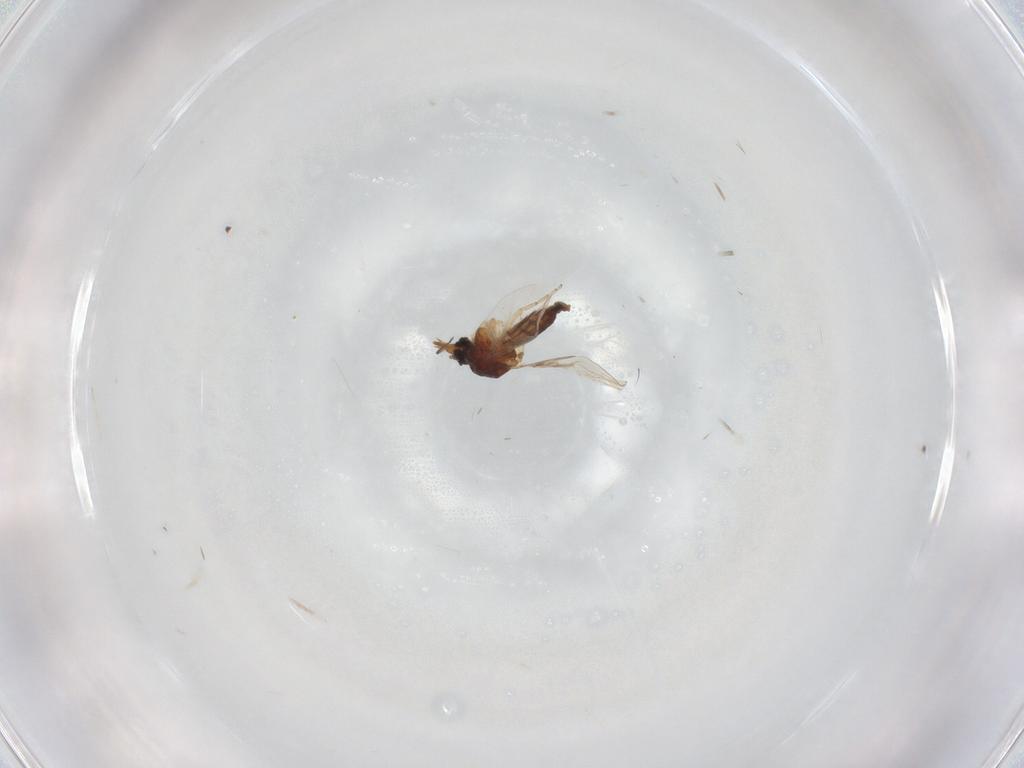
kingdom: Animalia
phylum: Arthropoda
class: Insecta
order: Diptera
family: Ceratopogonidae
